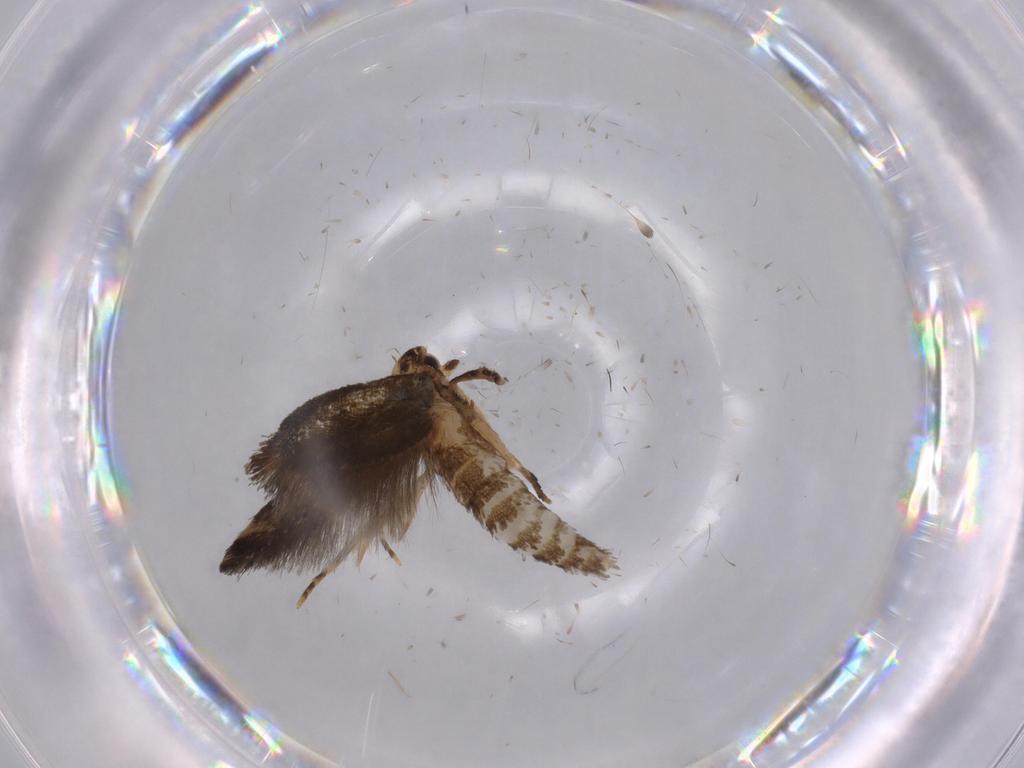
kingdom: Animalia
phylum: Arthropoda
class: Insecta
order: Lepidoptera
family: Tineidae
